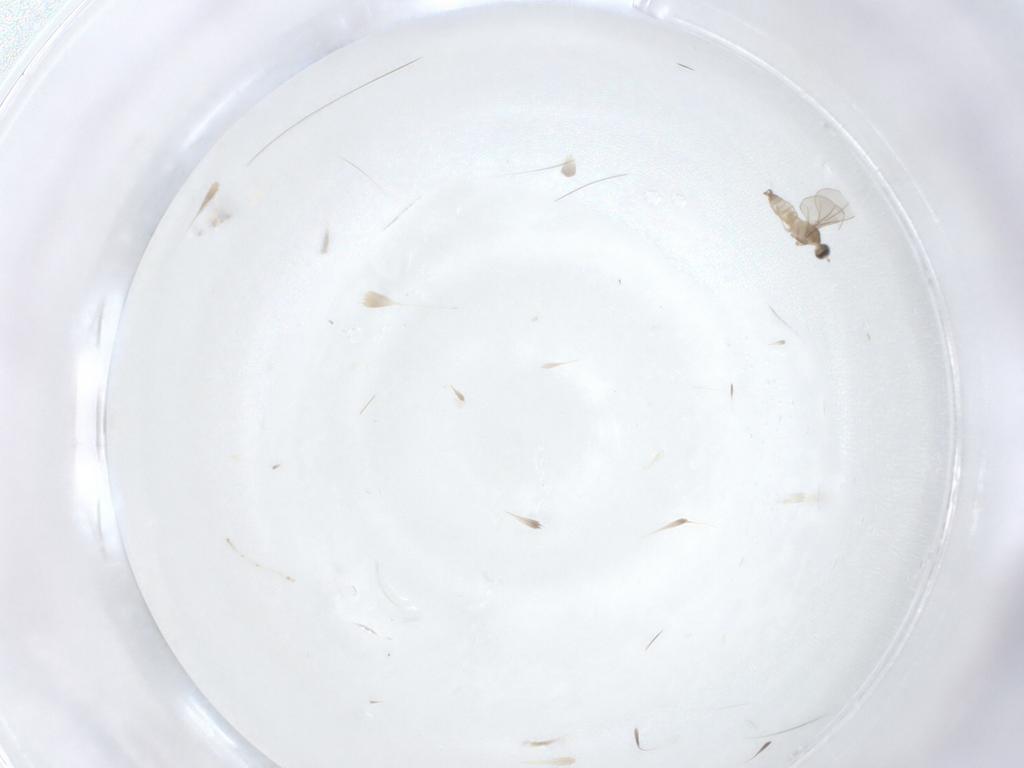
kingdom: Animalia
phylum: Arthropoda
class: Insecta
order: Diptera
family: Cecidomyiidae
